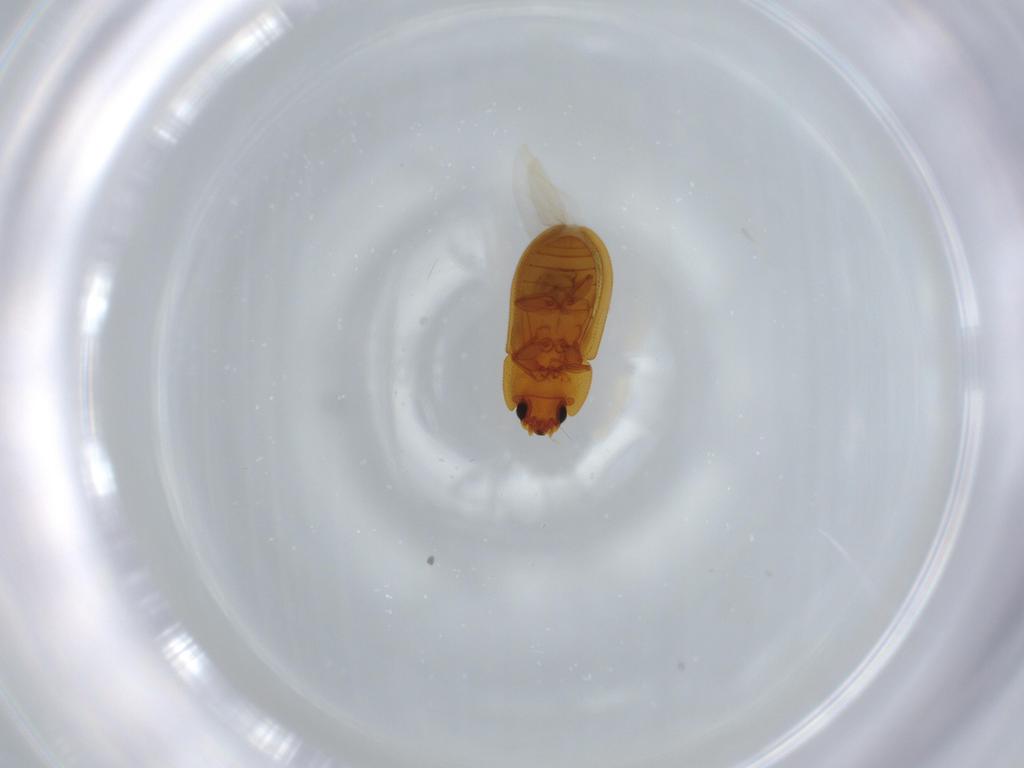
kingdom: Animalia
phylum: Arthropoda
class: Insecta
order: Coleoptera
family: Zopheridae
